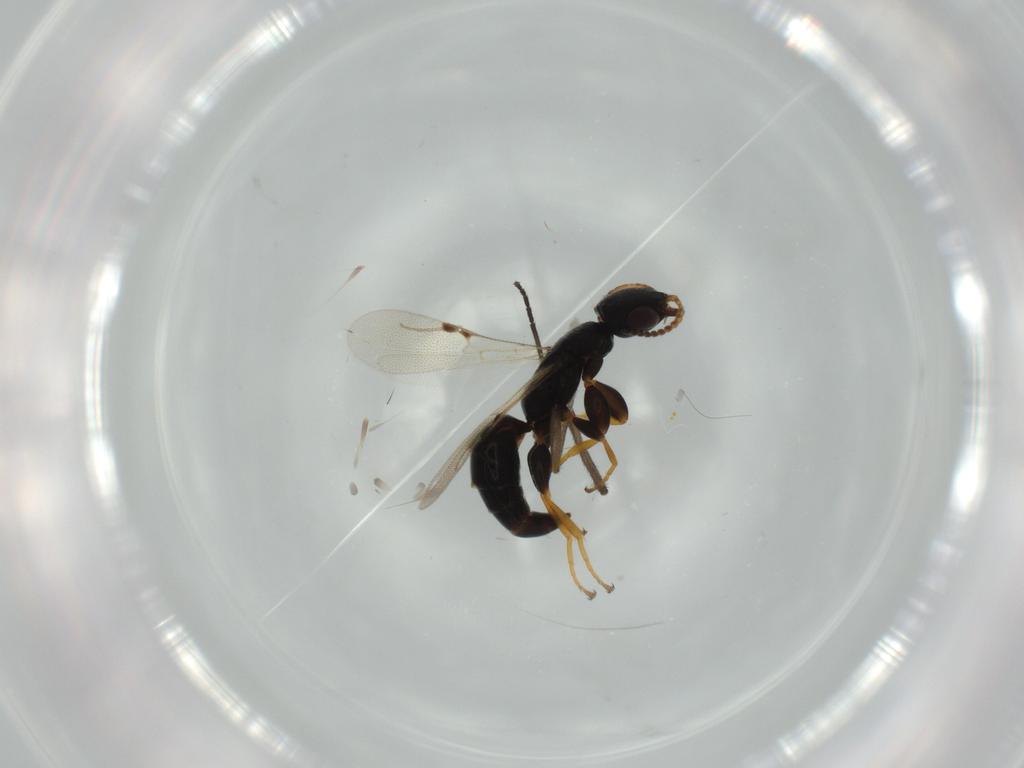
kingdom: Animalia
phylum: Arthropoda
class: Insecta
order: Hymenoptera
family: Bethylidae
